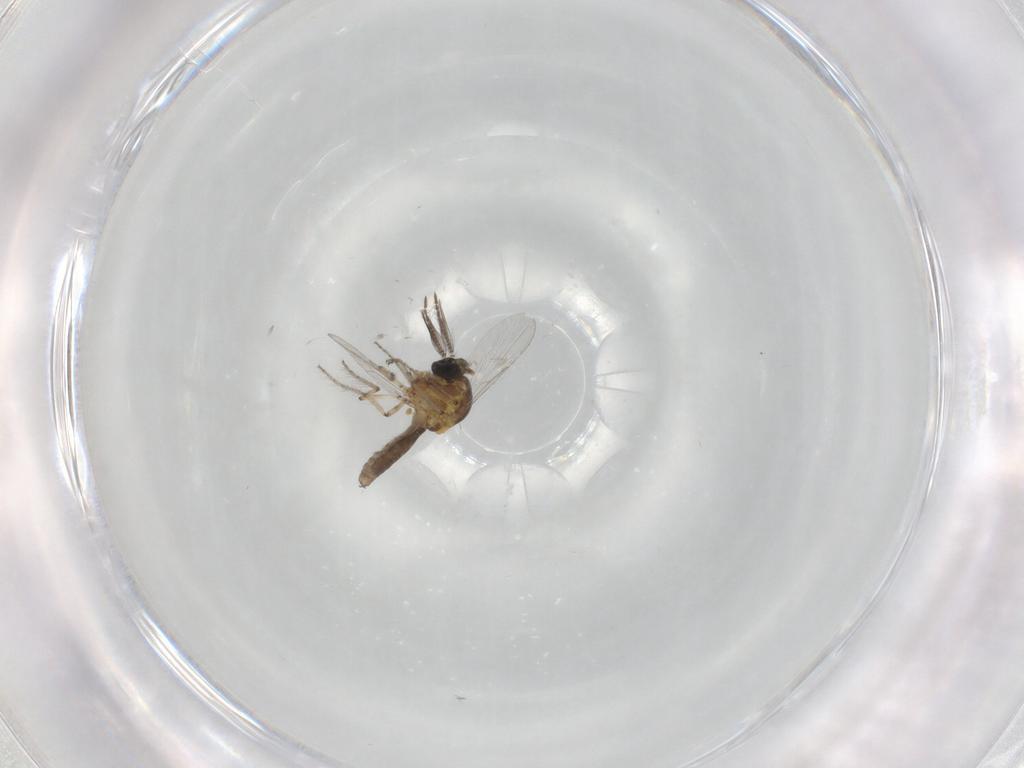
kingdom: Animalia
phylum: Arthropoda
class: Insecta
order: Diptera
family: Ceratopogonidae
